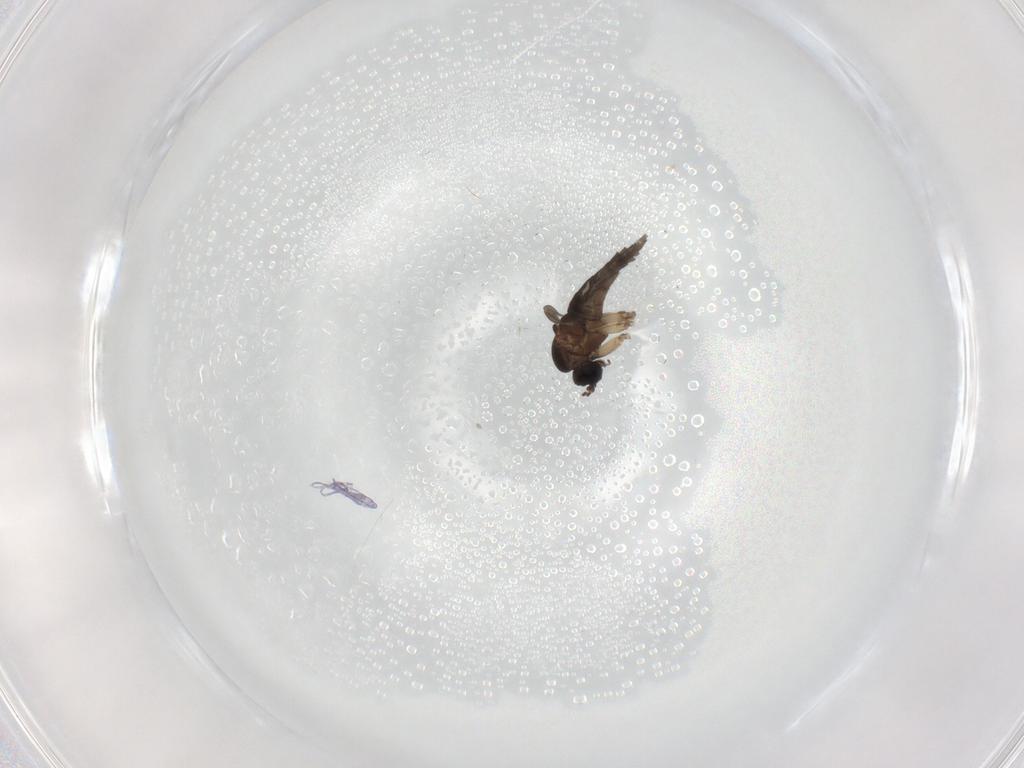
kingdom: Animalia
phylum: Arthropoda
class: Insecta
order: Diptera
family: Sciaridae
